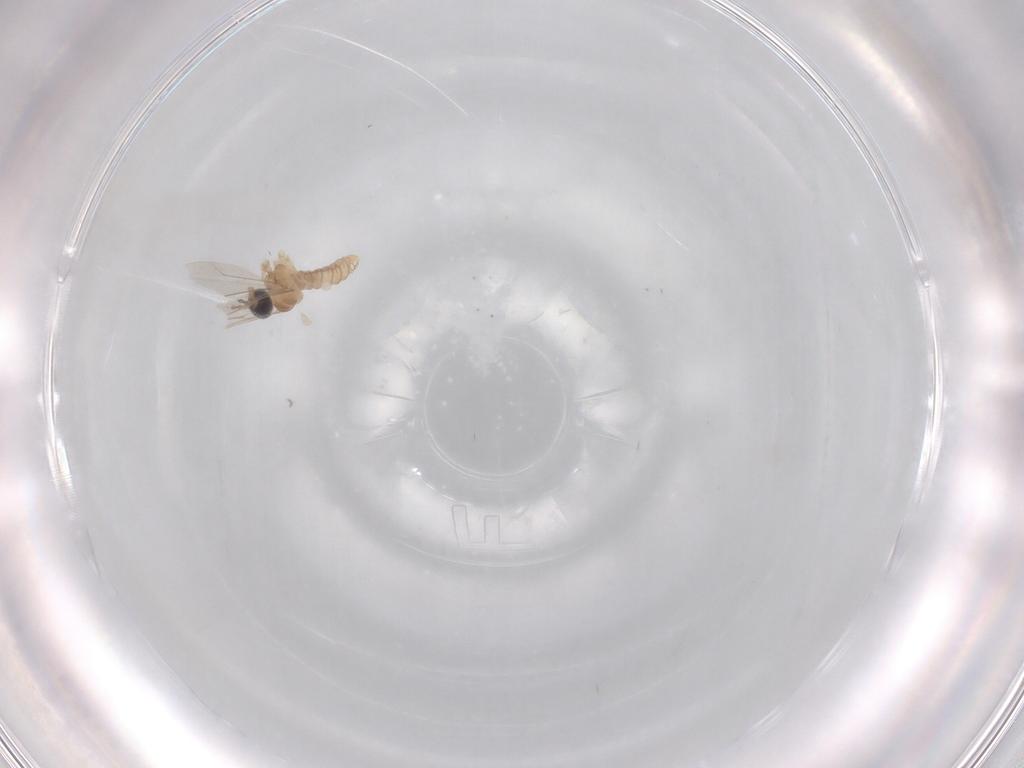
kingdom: Animalia
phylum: Arthropoda
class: Insecta
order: Diptera
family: Cecidomyiidae
